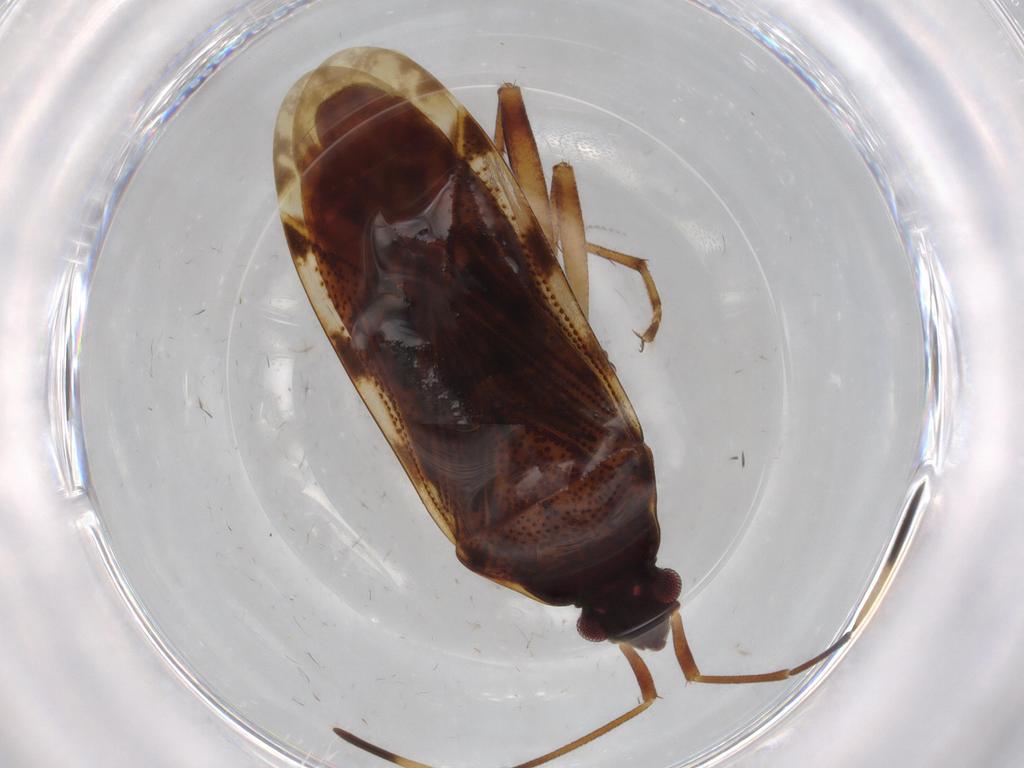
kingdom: Animalia
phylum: Arthropoda
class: Insecta
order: Hemiptera
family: Rhyparochromidae
